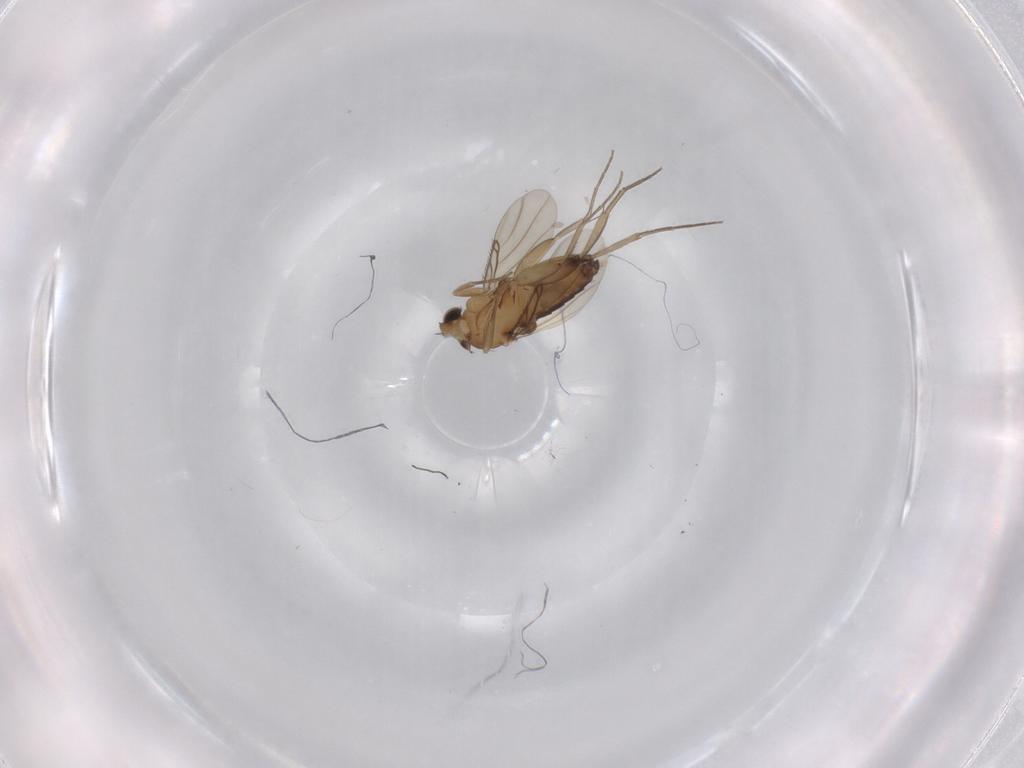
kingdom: Animalia
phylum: Arthropoda
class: Insecta
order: Diptera
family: Phoridae
